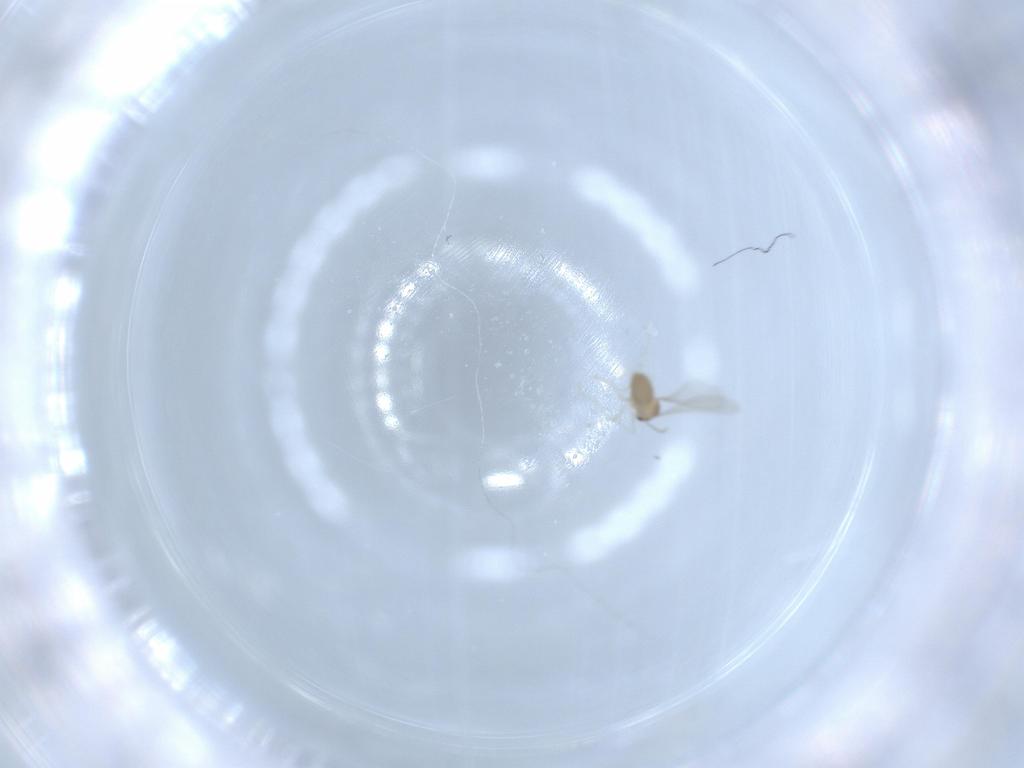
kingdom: Animalia
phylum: Arthropoda
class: Insecta
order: Diptera
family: Cecidomyiidae
